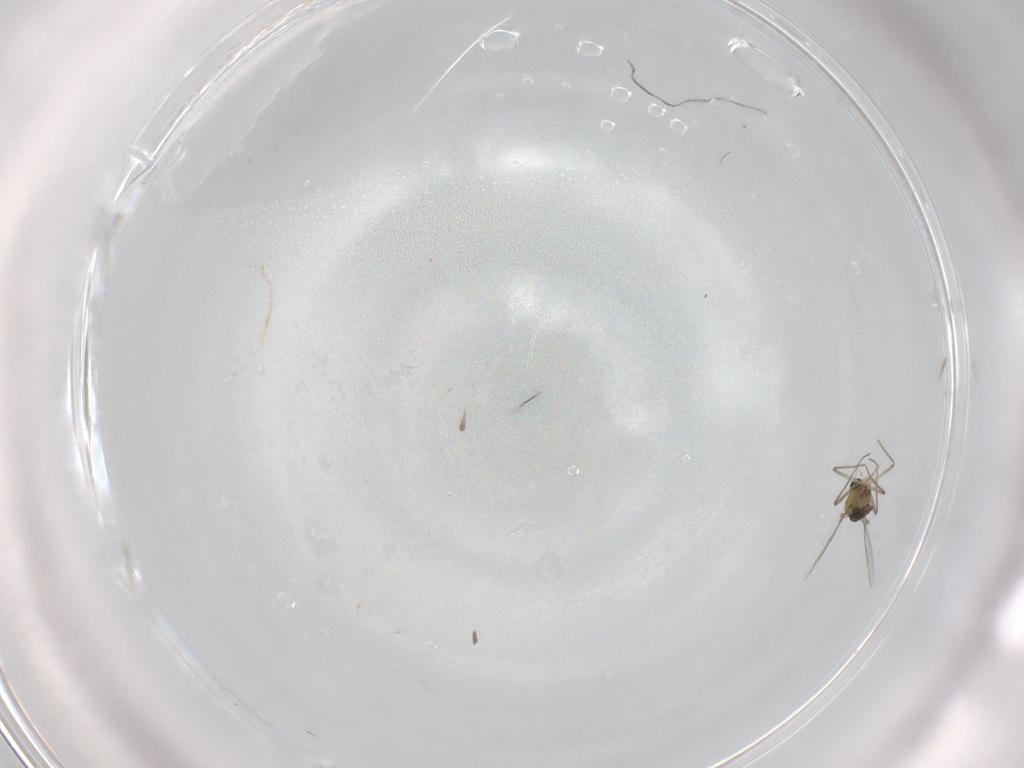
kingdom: Animalia
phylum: Arthropoda
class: Insecta
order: Diptera
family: Chironomidae
